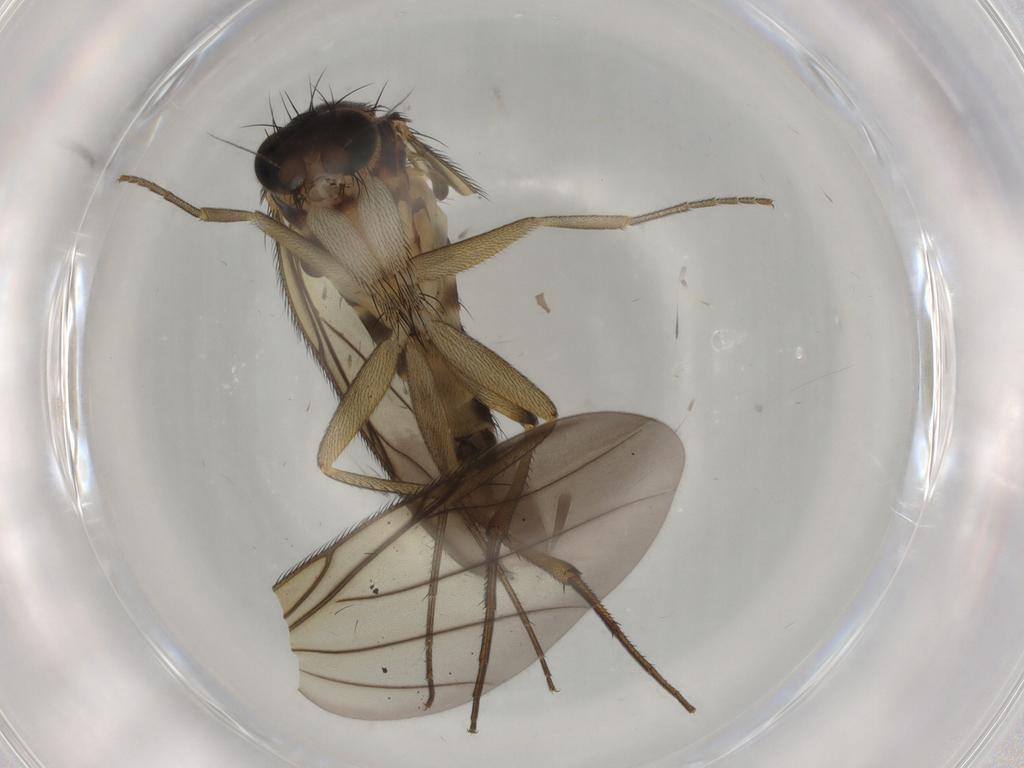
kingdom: Animalia
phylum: Arthropoda
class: Insecta
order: Diptera
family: Phoridae
